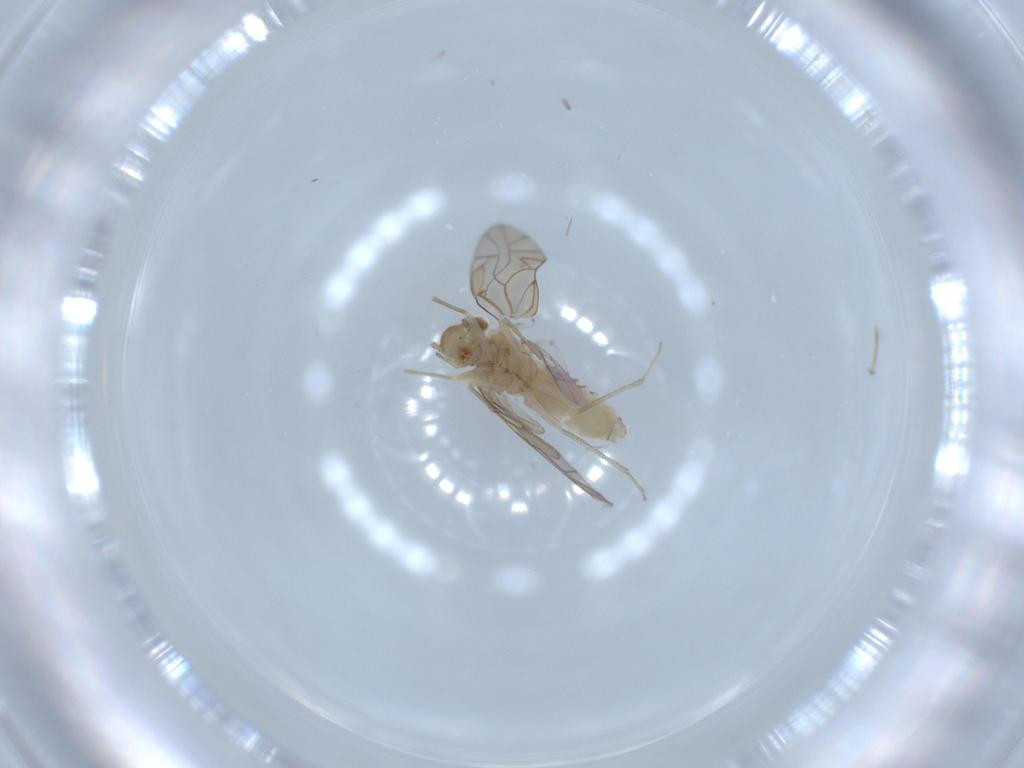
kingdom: Animalia
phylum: Arthropoda
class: Insecta
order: Psocodea
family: Lachesillidae
